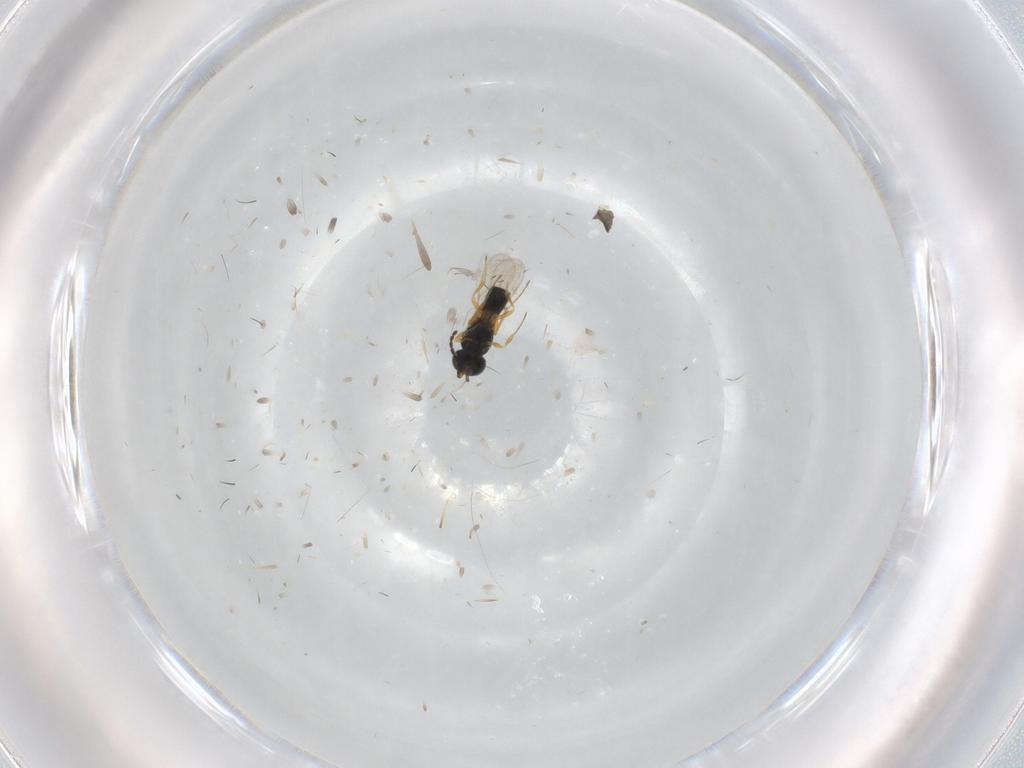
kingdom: Animalia
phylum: Arthropoda
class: Insecta
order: Hymenoptera
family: Scelionidae
